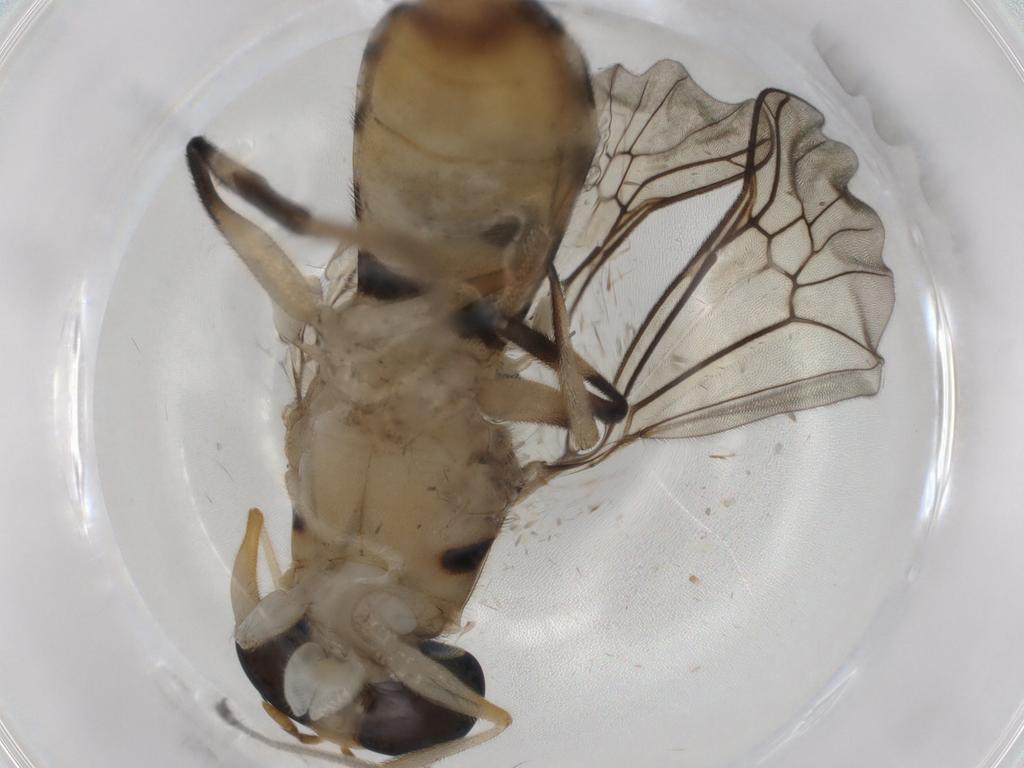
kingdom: Animalia
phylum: Arthropoda
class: Insecta
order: Diptera
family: Cecidomyiidae
